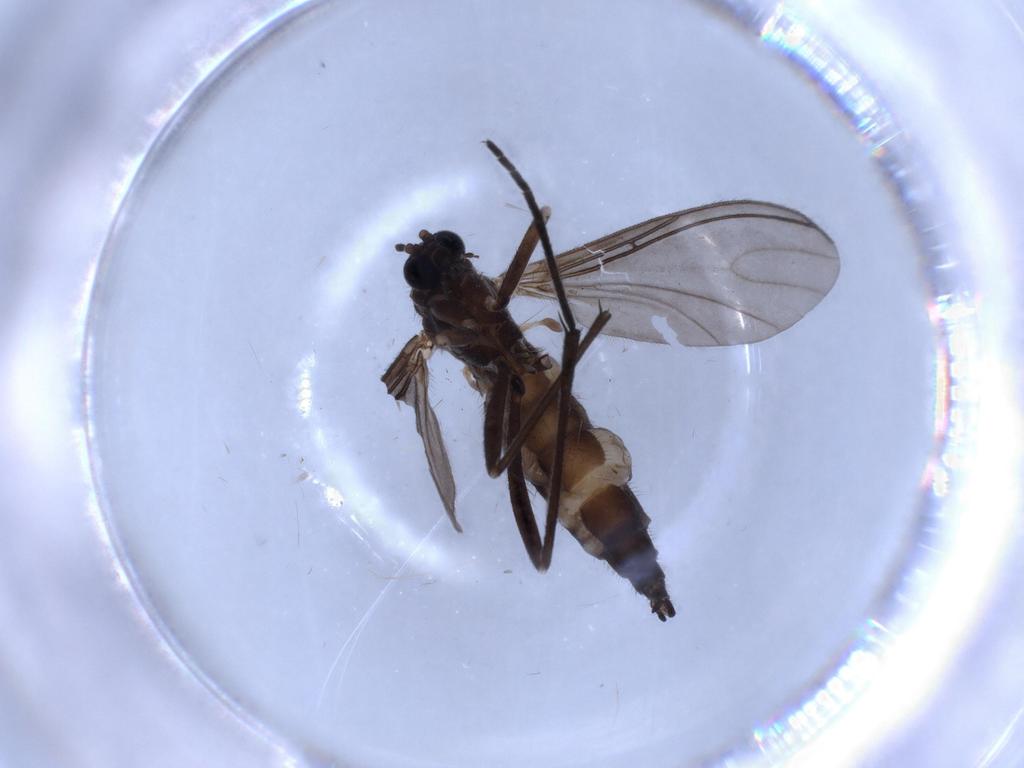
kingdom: Animalia
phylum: Arthropoda
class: Insecta
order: Diptera
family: Sciaridae
